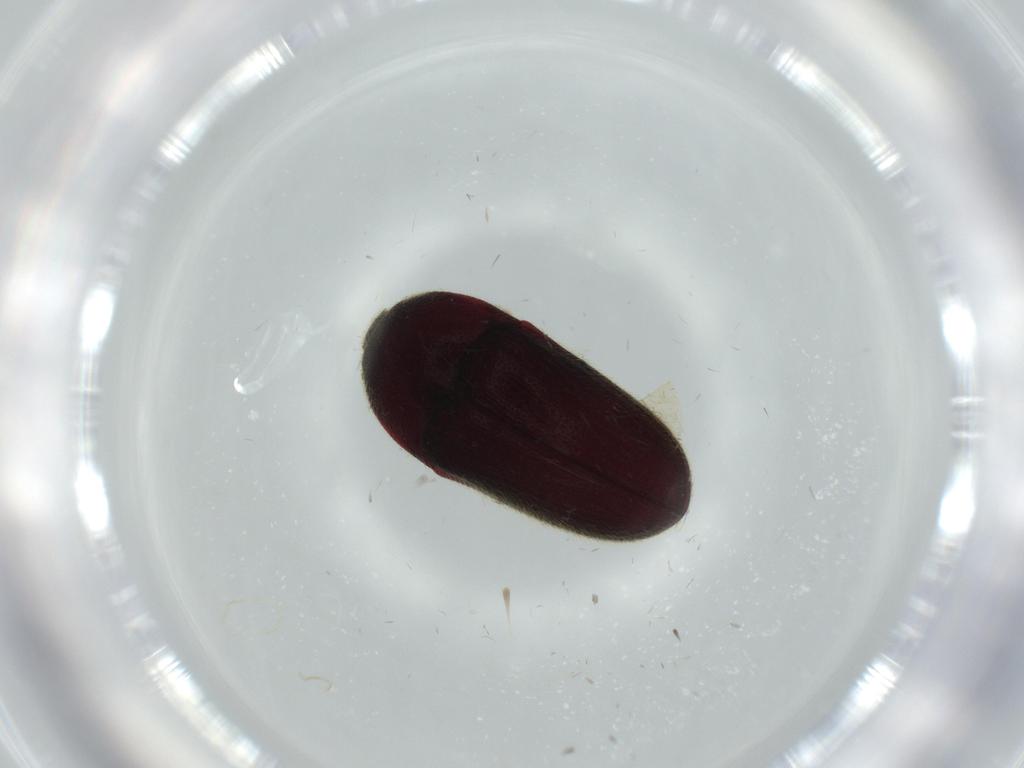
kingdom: Animalia
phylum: Arthropoda
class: Insecta
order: Coleoptera
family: Throscidae
